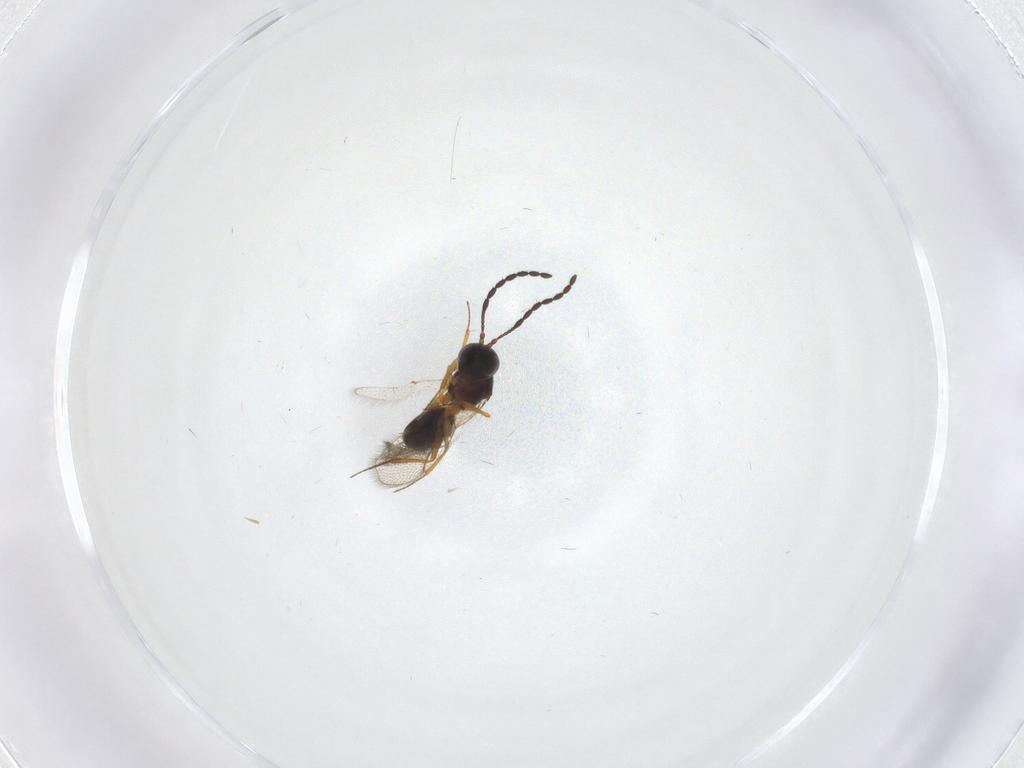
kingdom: Animalia
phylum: Arthropoda
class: Insecta
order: Hymenoptera
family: Figitidae
